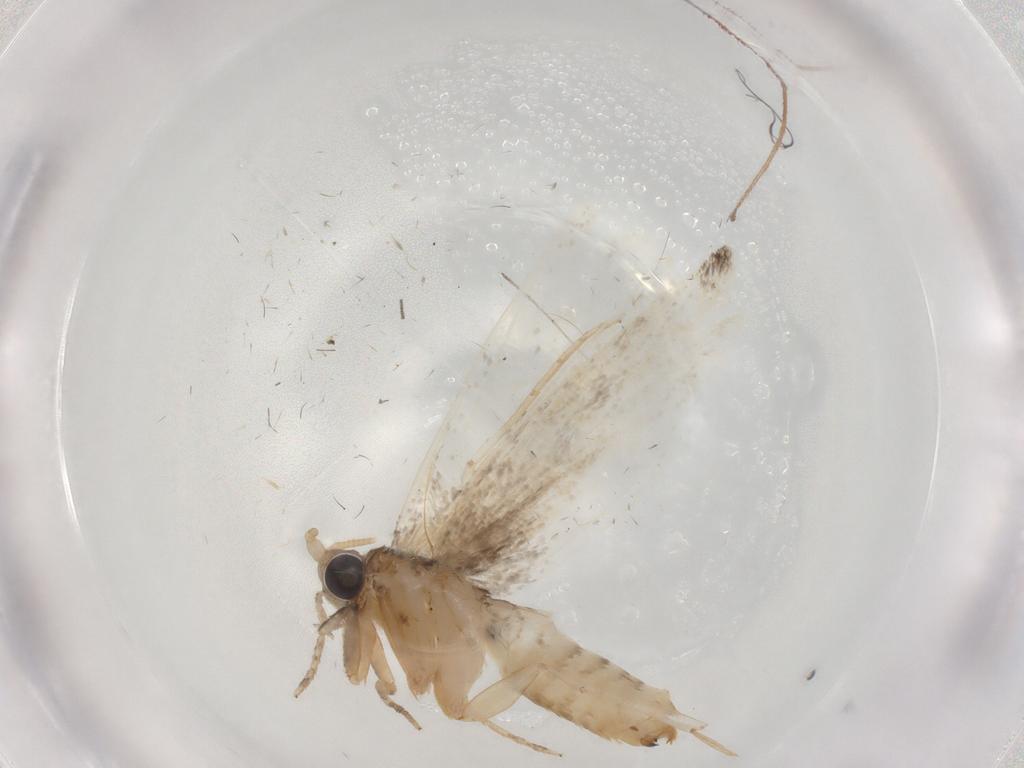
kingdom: Animalia
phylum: Arthropoda
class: Insecta
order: Lepidoptera
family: Tineidae
